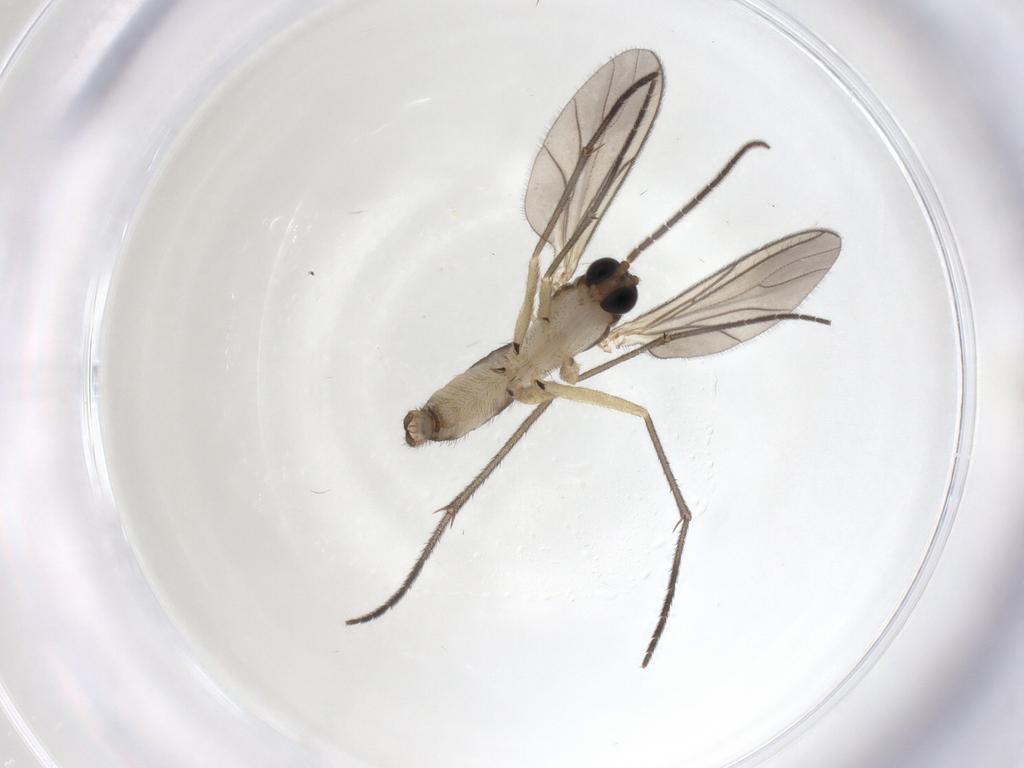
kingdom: Animalia
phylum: Arthropoda
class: Insecta
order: Diptera
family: Sciaridae
